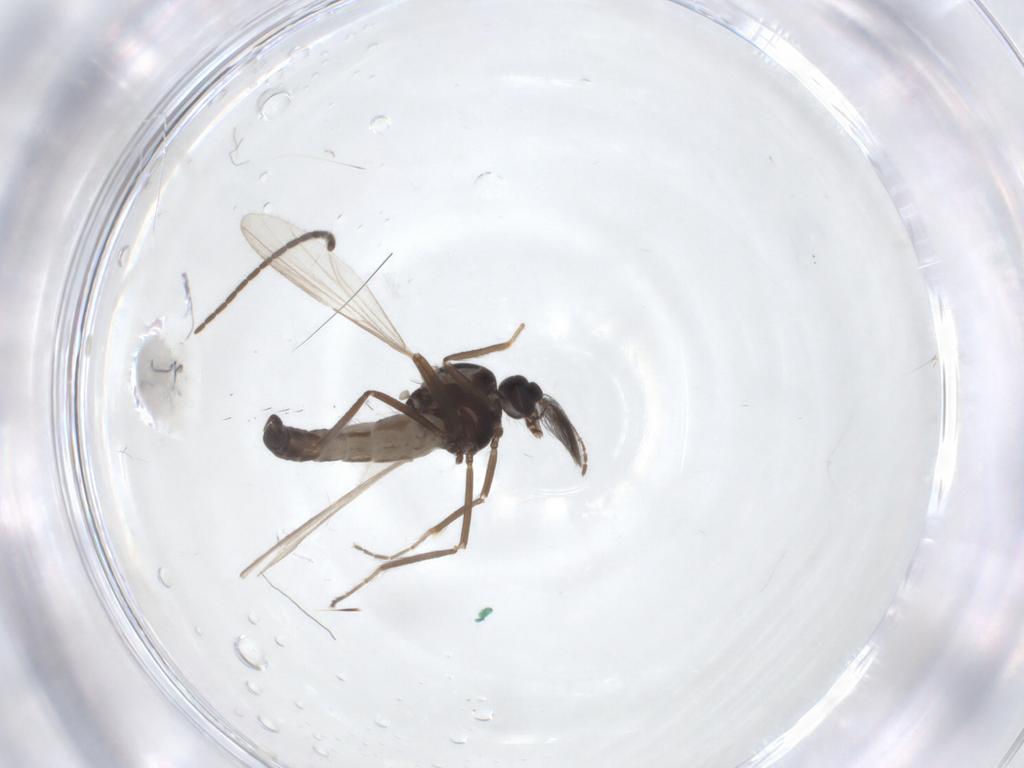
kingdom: Animalia
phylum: Arthropoda
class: Insecta
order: Diptera
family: Ceratopogonidae
